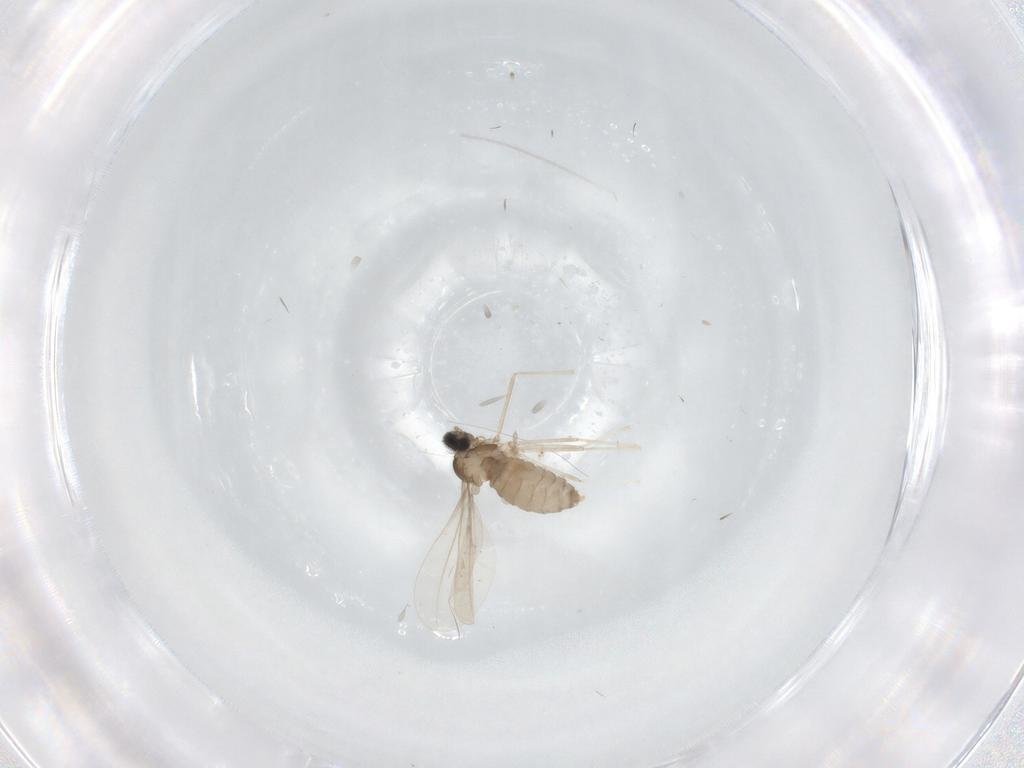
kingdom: Animalia
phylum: Arthropoda
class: Insecta
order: Diptera
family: Cecidomyiidae
